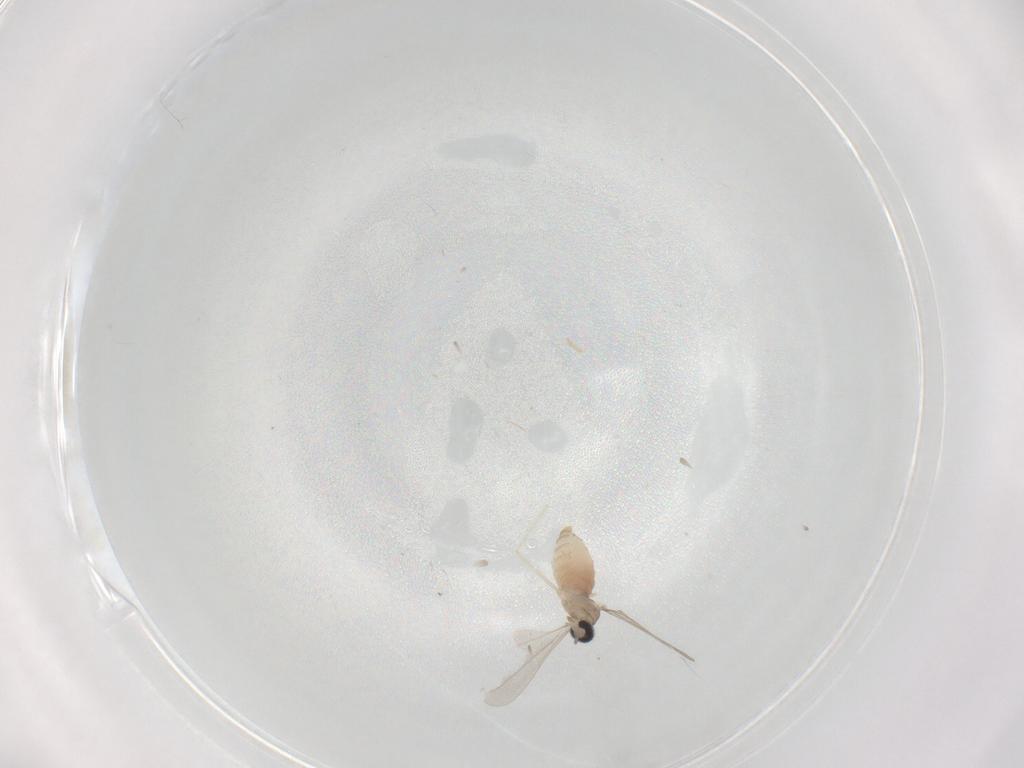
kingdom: Animalia
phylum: Arthropoda
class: Insecta
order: Diptera
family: Cecidomyiidae
